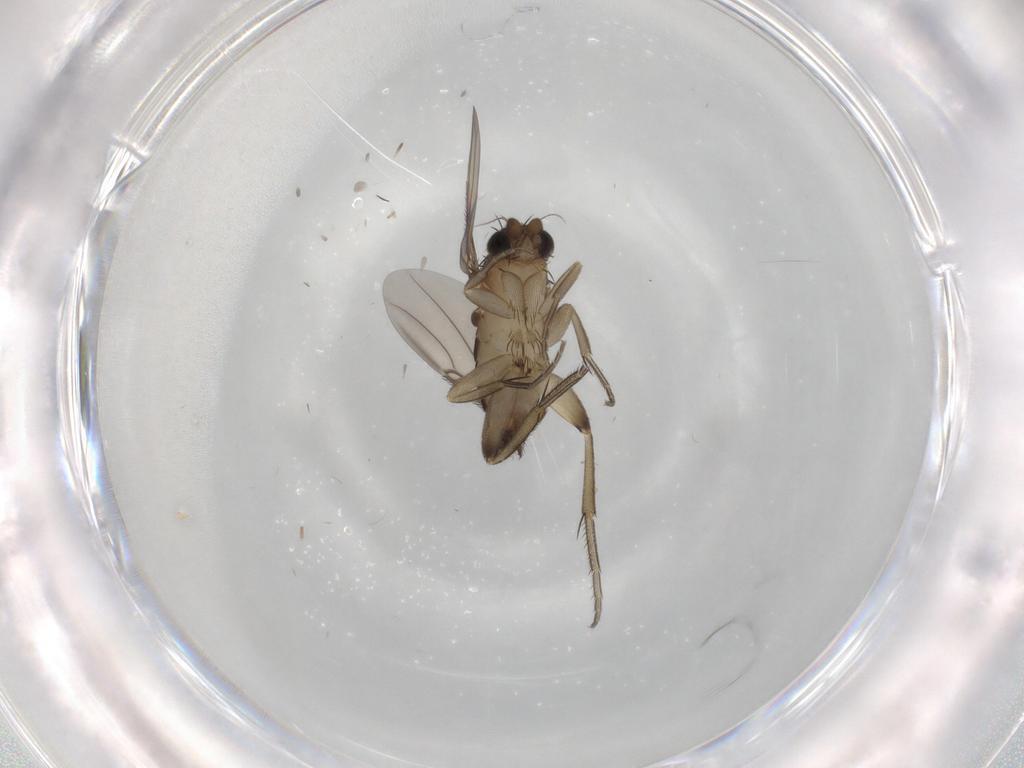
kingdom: Animalia
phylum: Arthropoda
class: Insecta
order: Diptera
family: Phoridae
